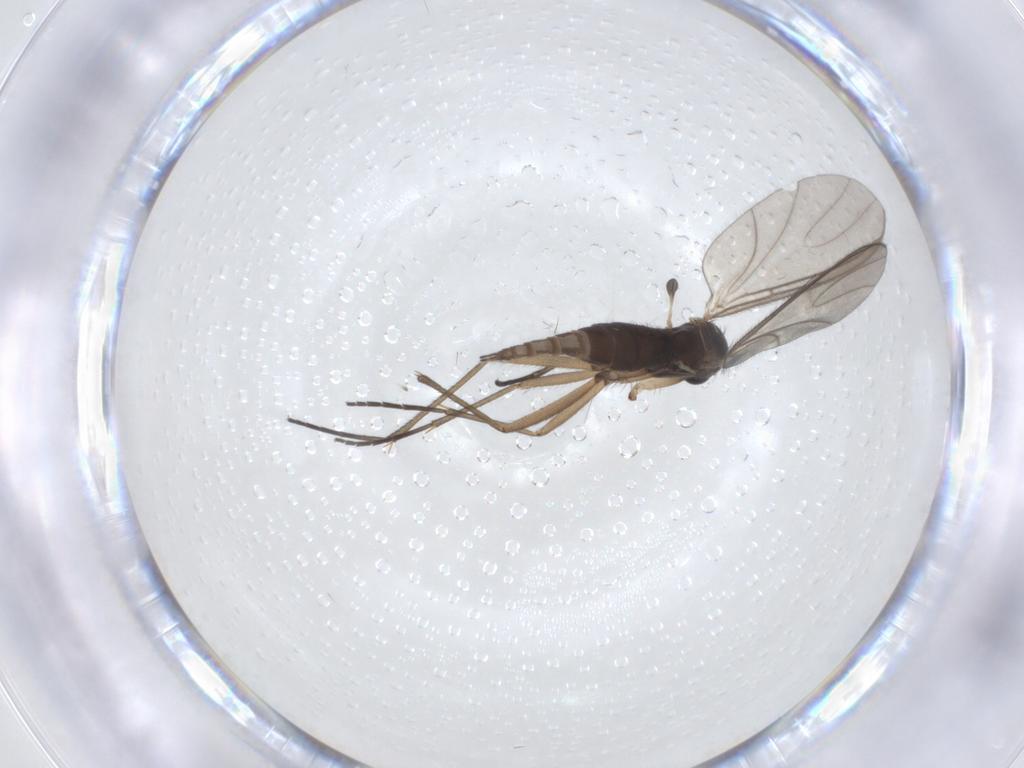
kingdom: Animalia
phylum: Arthropoda
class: Insecta
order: Diptera
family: Sciaridae
